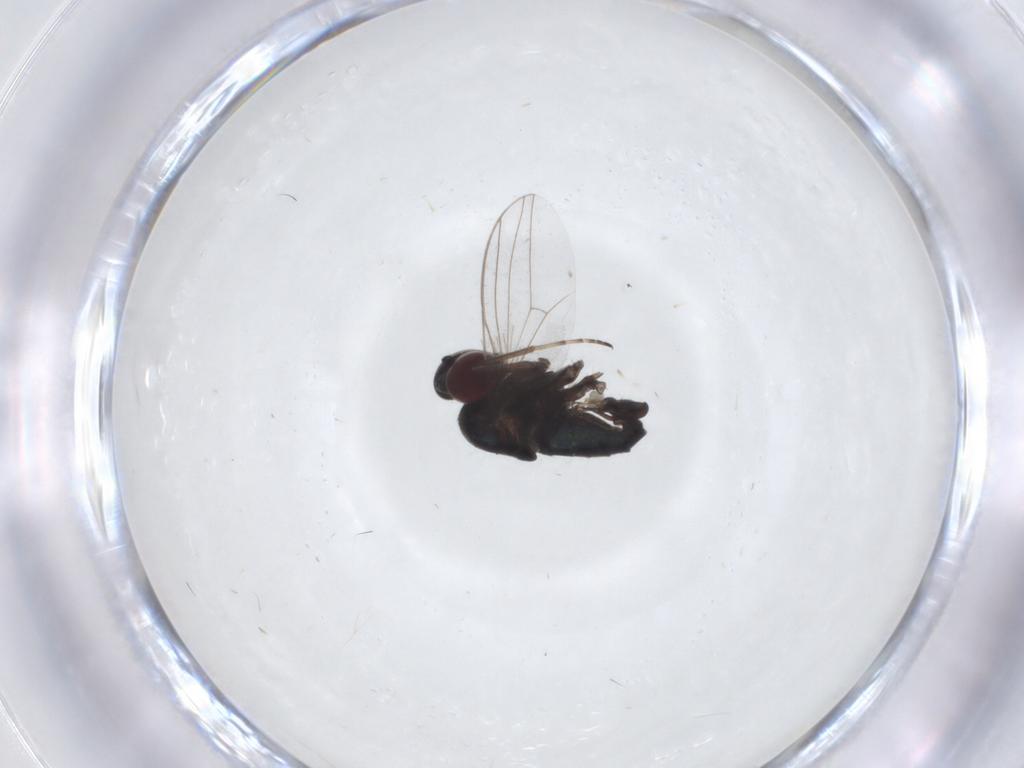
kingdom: Animalia
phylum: Arthropoda
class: Insecta
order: Diptera
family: Dolichopodidae
